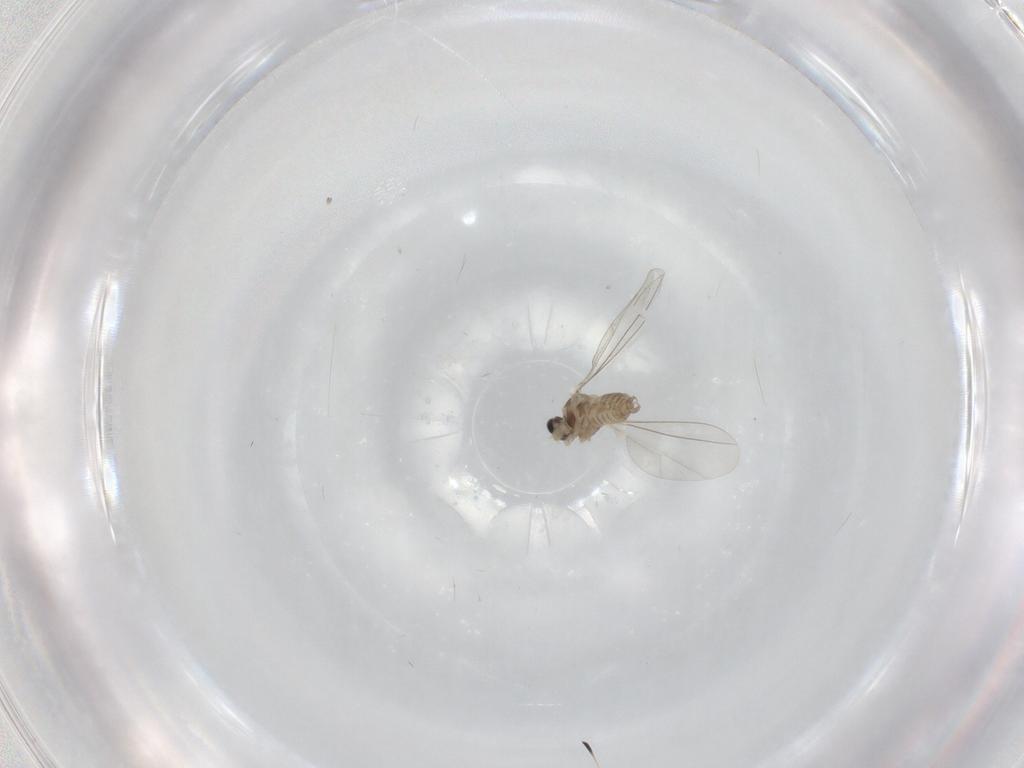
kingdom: Animalia
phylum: Arthropoda
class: Insecta
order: Diptera
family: Cecidomyiidae
